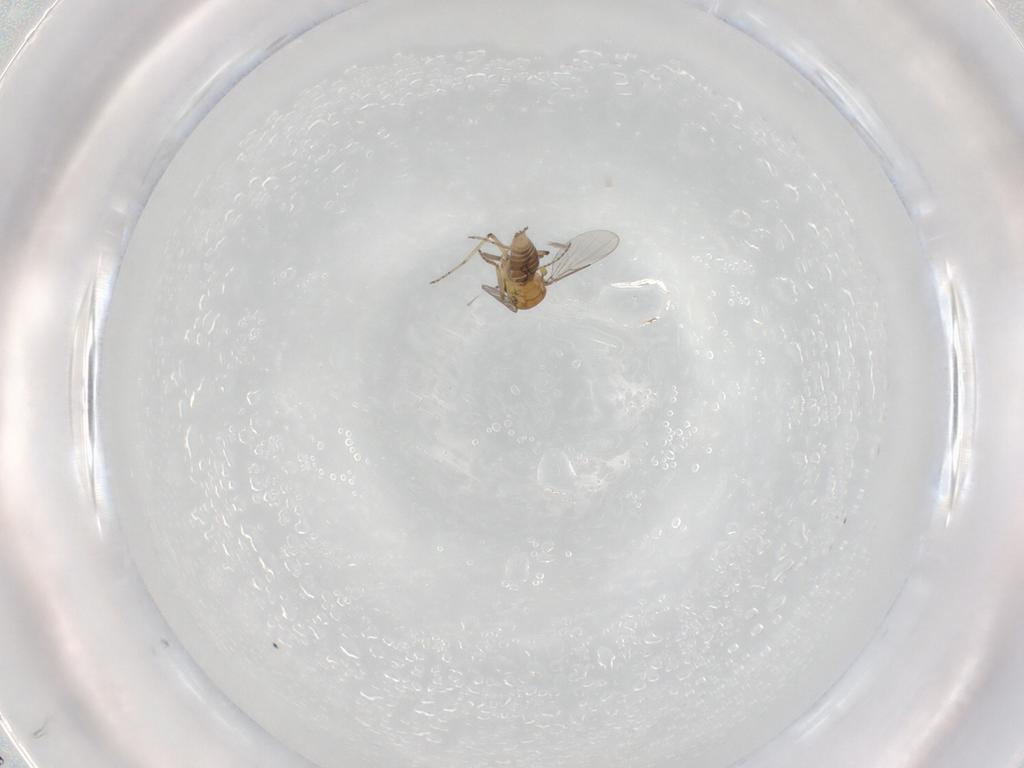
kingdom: Animalia
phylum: Arthropoda
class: Insecta
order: Diptera
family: Ceratopogonidae
